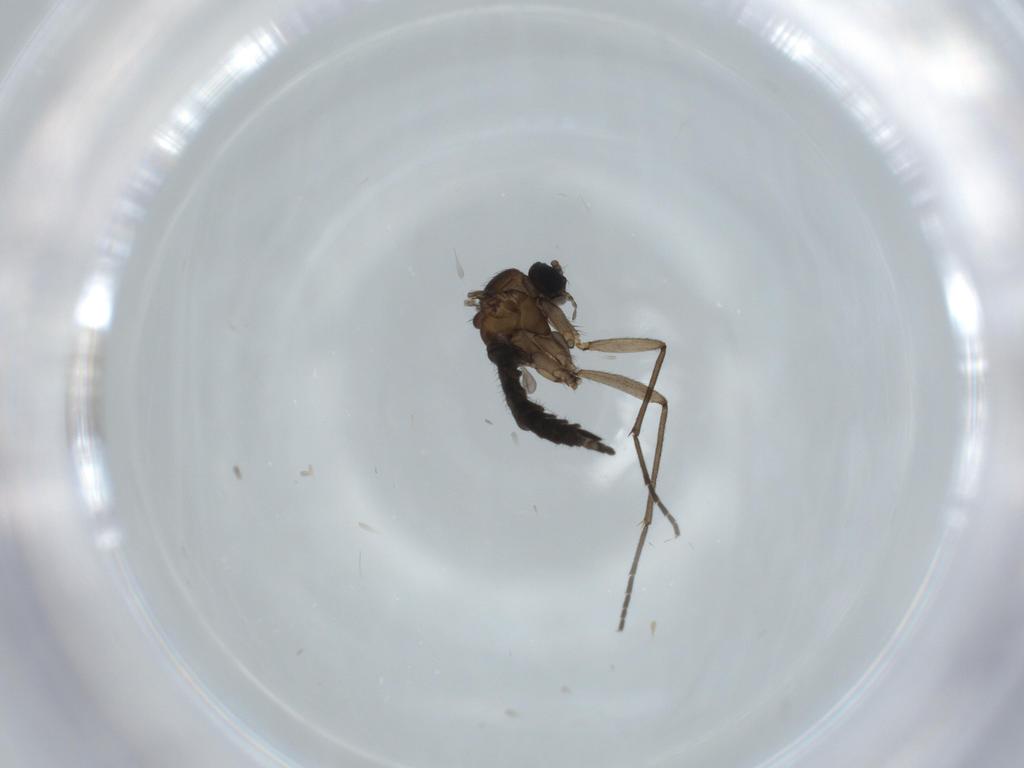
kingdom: Animalia
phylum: Arthropoda
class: Insecta
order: Diptera
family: Sciaridae
